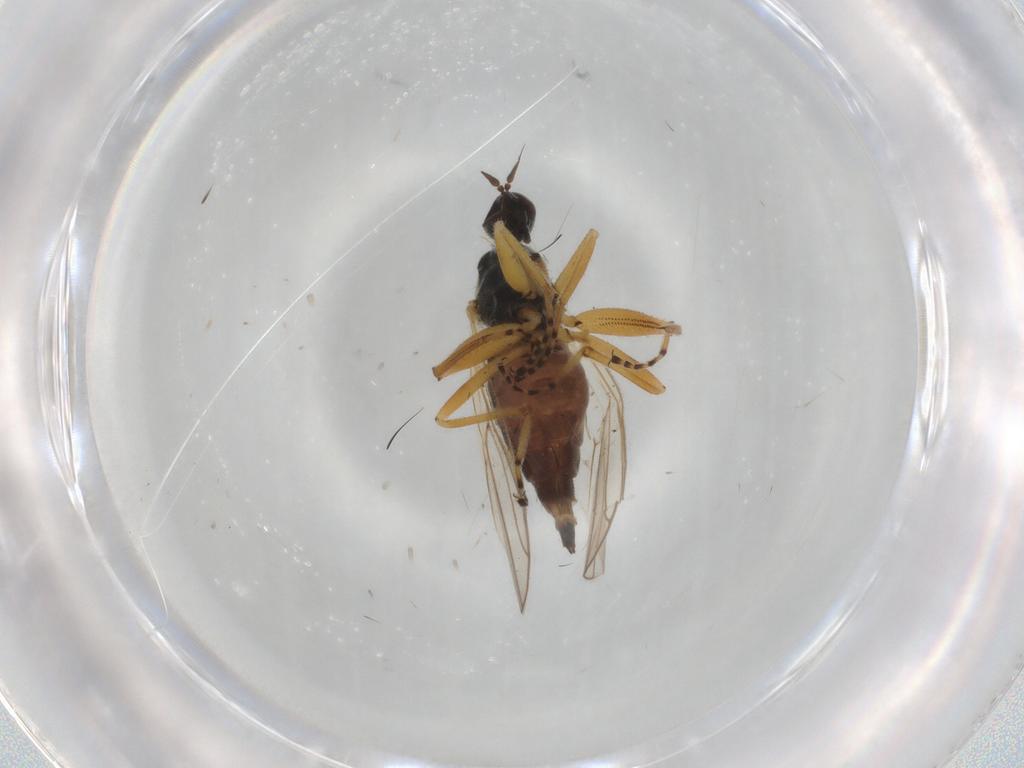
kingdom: Animalia
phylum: Arthropoda
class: Insecta
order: Diptera
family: Hybotidae
